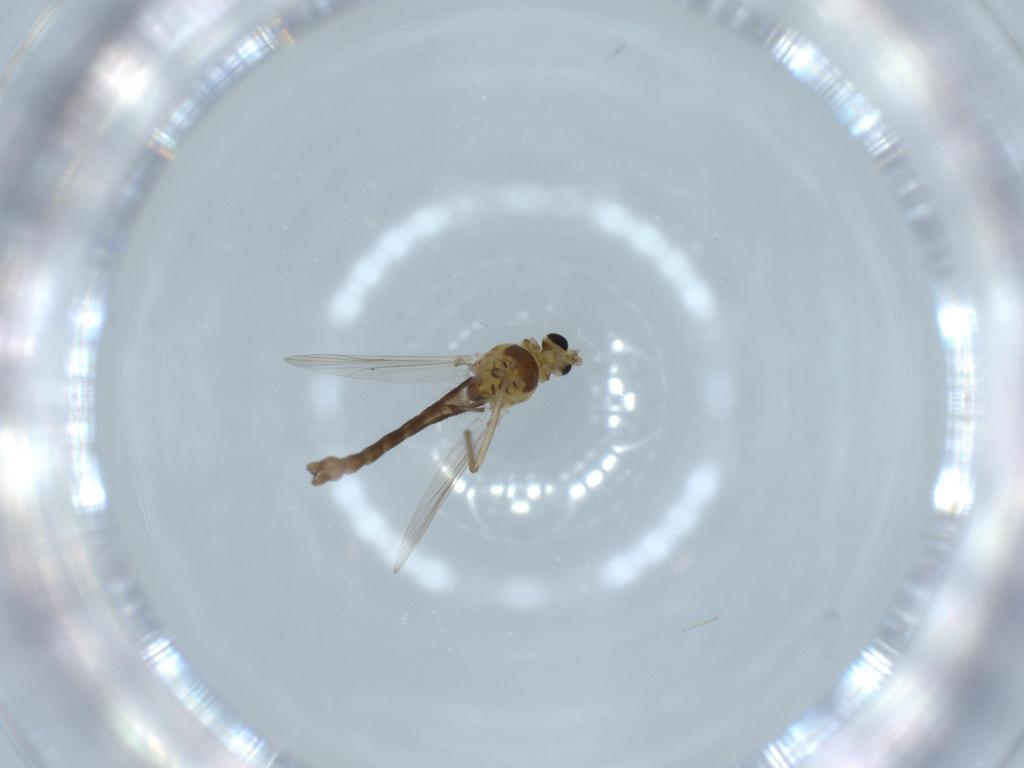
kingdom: Animalia
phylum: Arthropoda
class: Insecta
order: Diptera
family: Chironomidae
